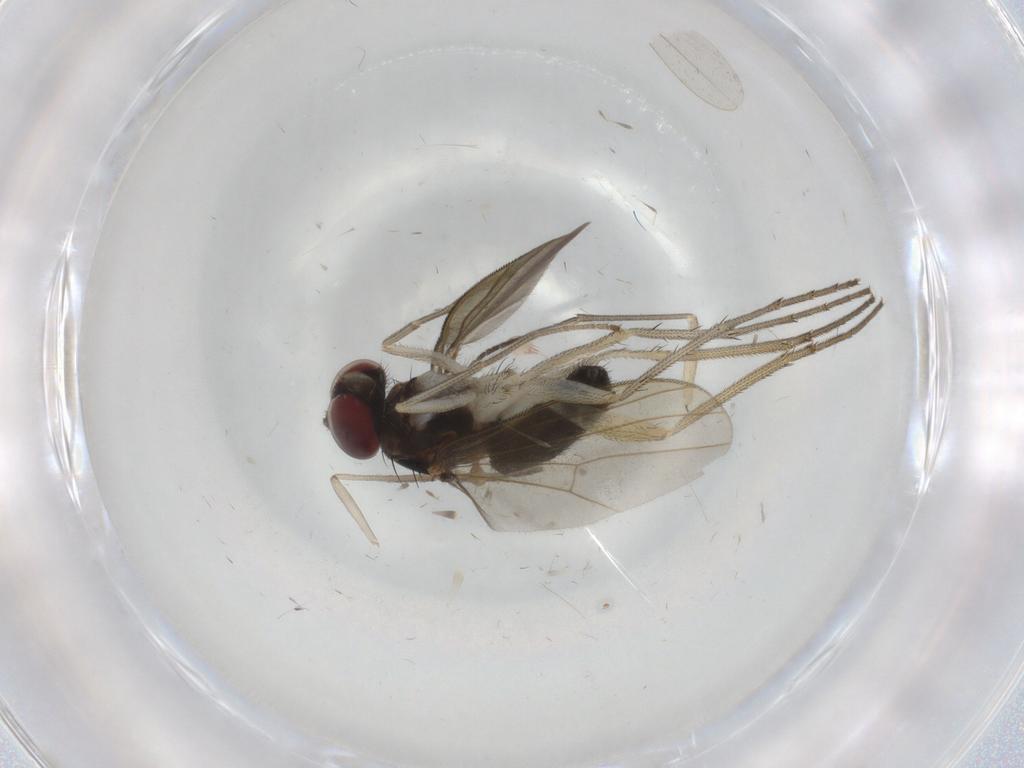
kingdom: Animalia
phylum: Arthropoda
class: Insecta
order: Diptera
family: Dolichopodidae
